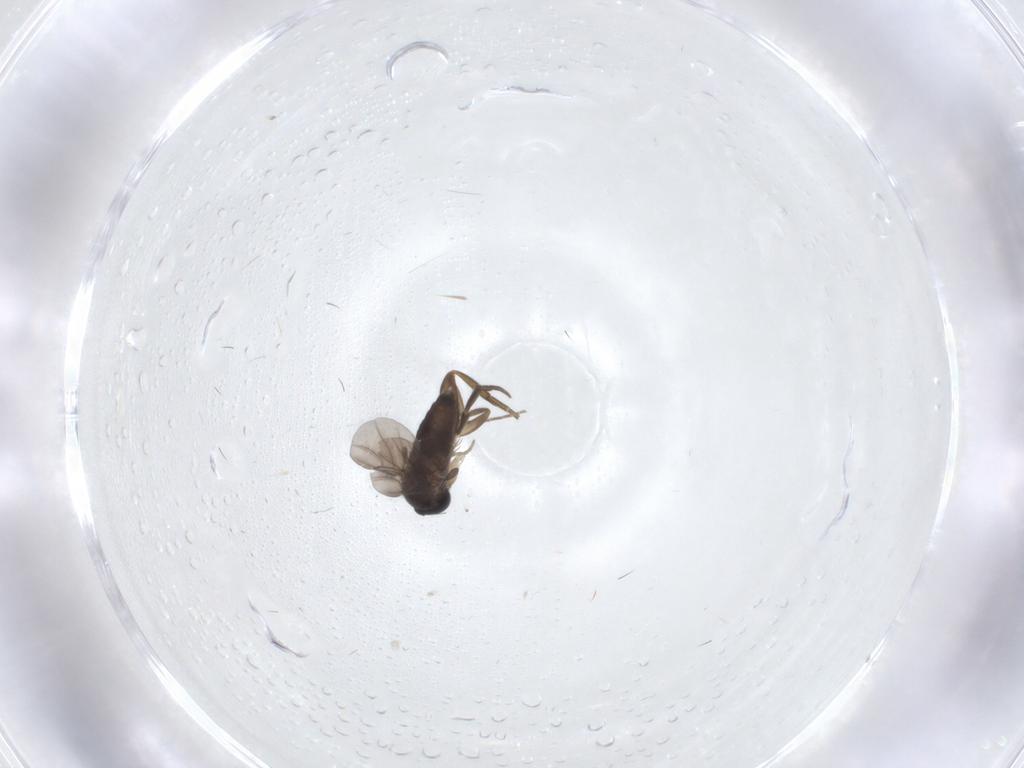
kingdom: Animalia
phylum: Arthropoda
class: Insecta
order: Diptera
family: Phoridae
